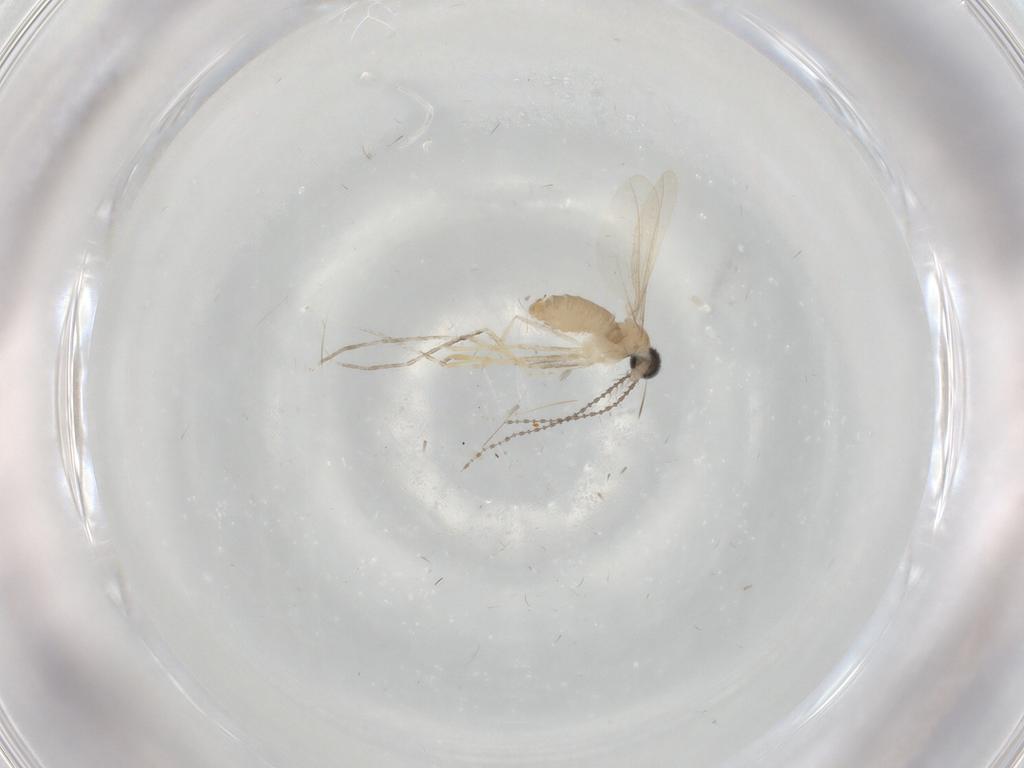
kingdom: Animalia
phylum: Arthropoda
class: Insecta
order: Diptera
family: Cecidomyiidae
